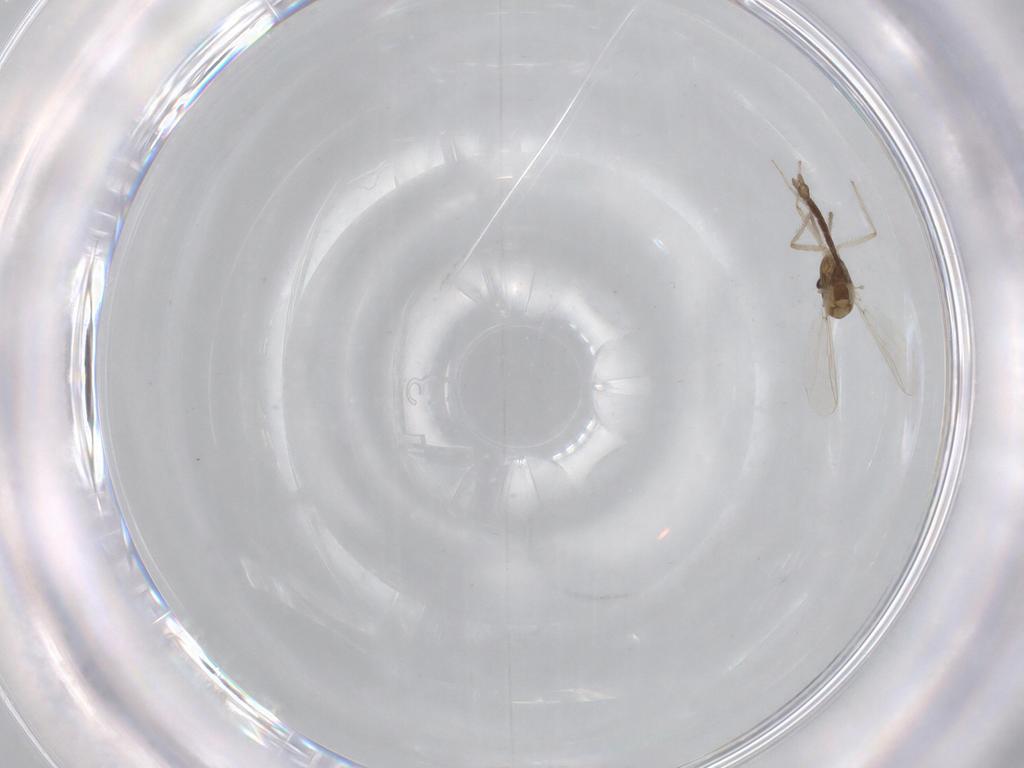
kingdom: Animalia
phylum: Arthropoda
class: Insecta
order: Diptera
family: Chironomidae
